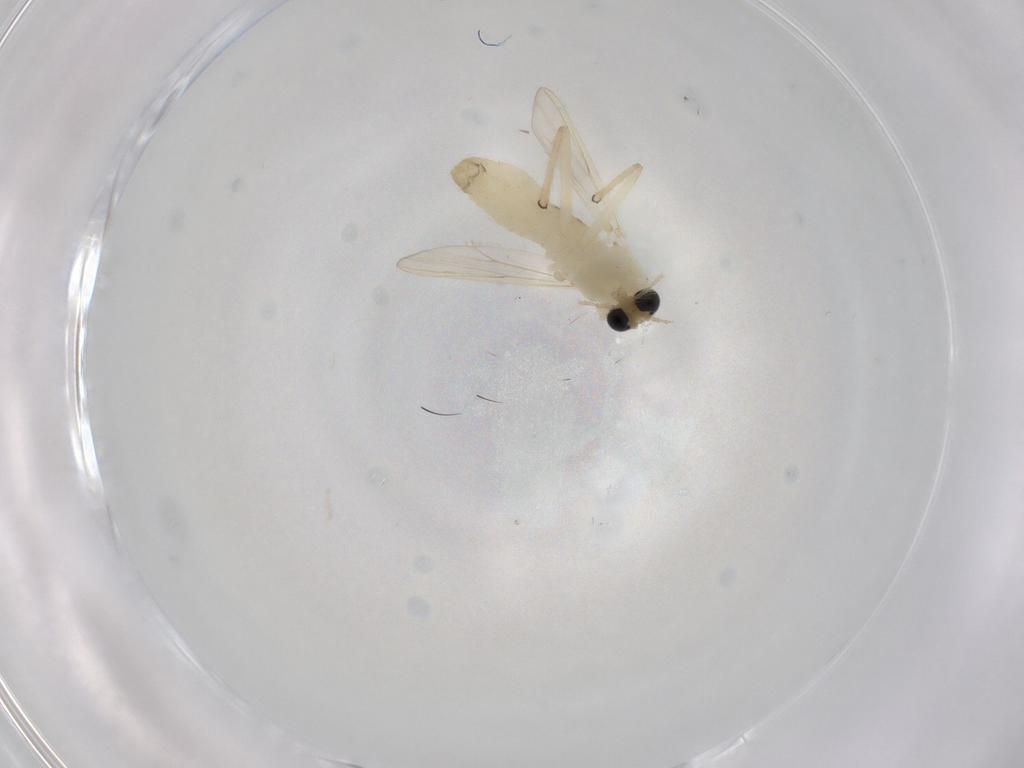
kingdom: Animalia
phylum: Arthropoda
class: Insecta
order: Diptera
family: Chironomidae
